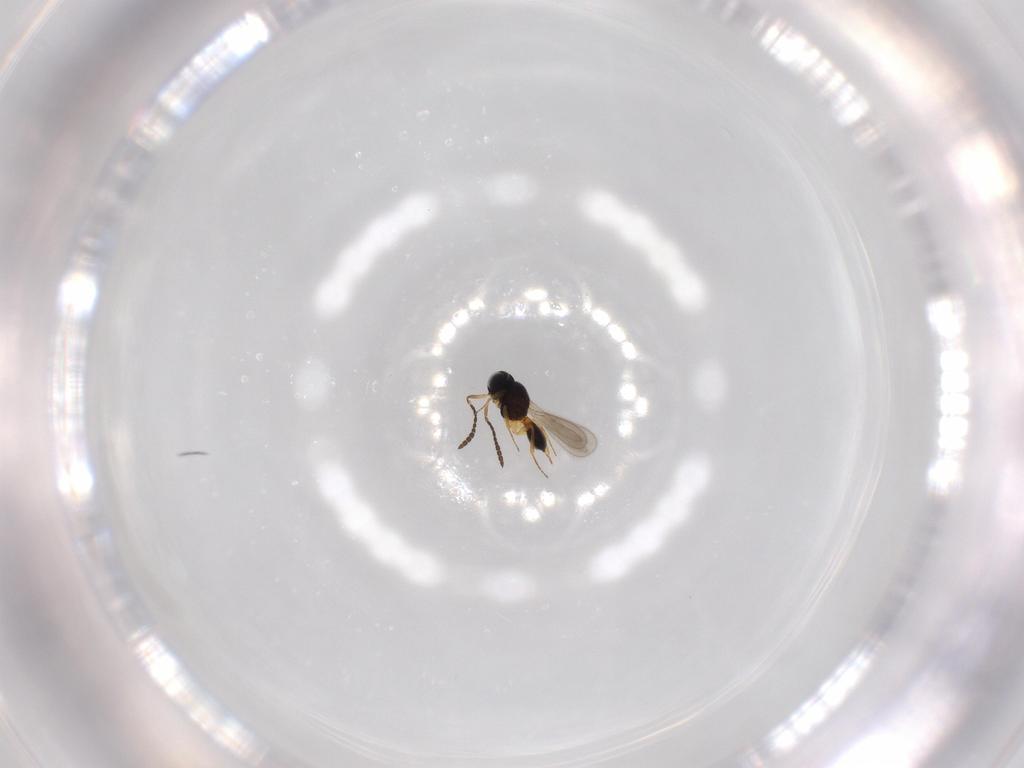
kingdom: Animalia
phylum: Arthropoda
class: Insecta
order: Hymenoptera
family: Scelionidae
